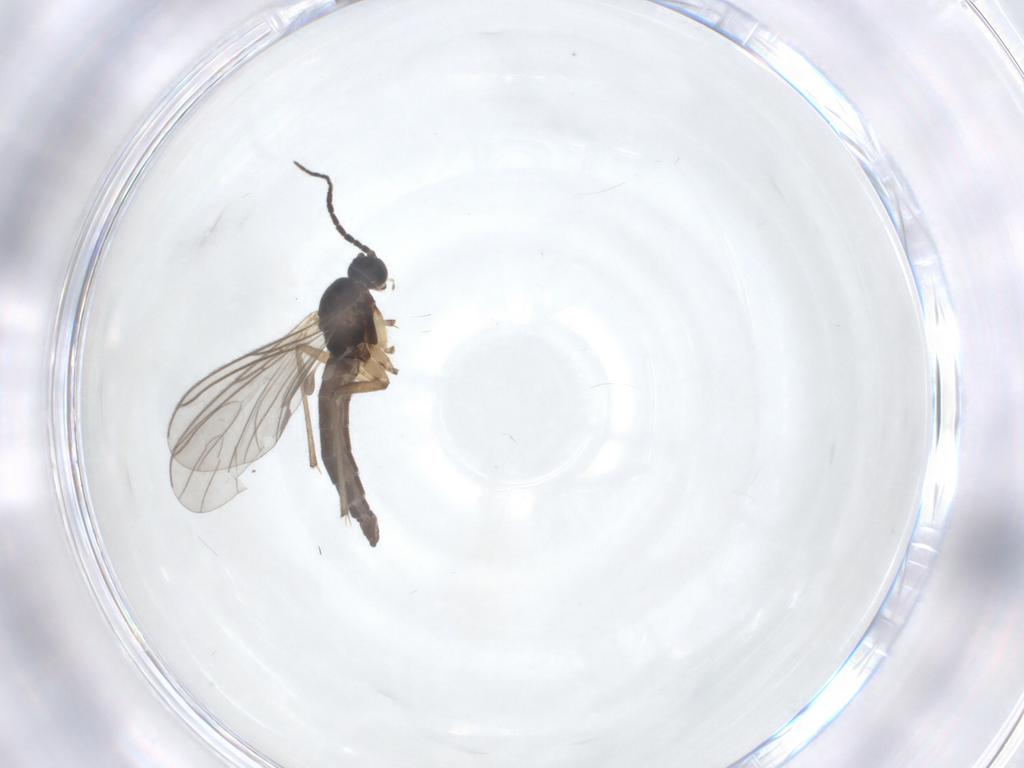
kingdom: Animalia
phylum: Arthropoda
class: Insecta
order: Diptera
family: Sciaridae
